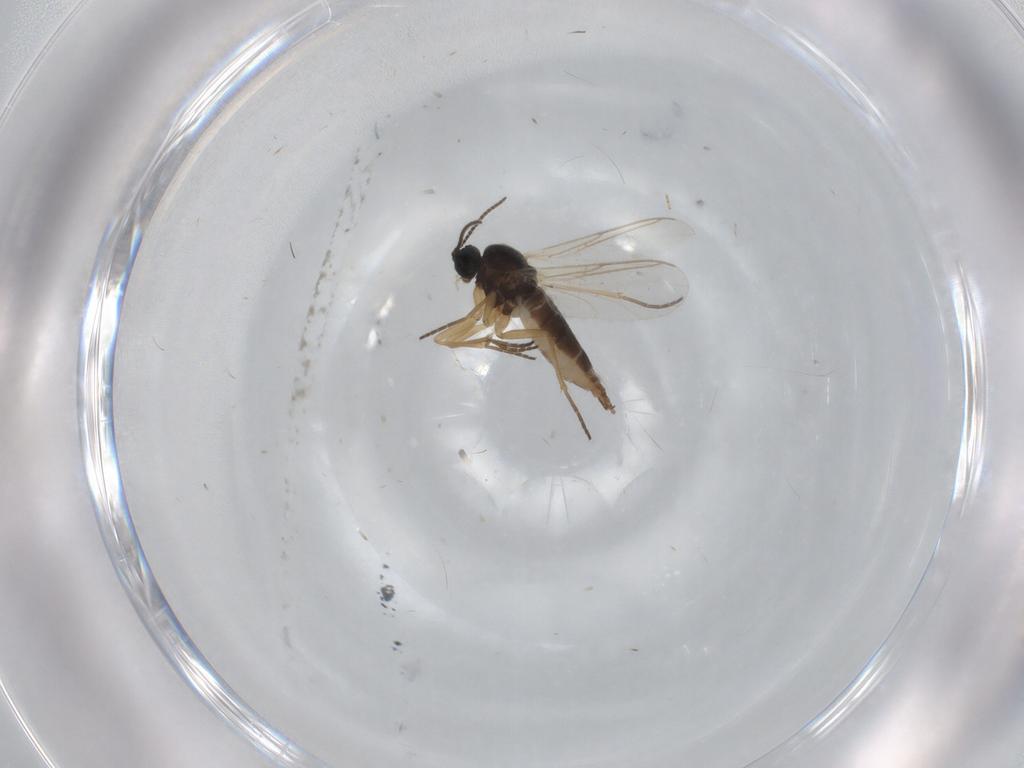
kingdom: Animalia
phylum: Arthropoda
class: Insecta
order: Diptera
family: Sciaridae
